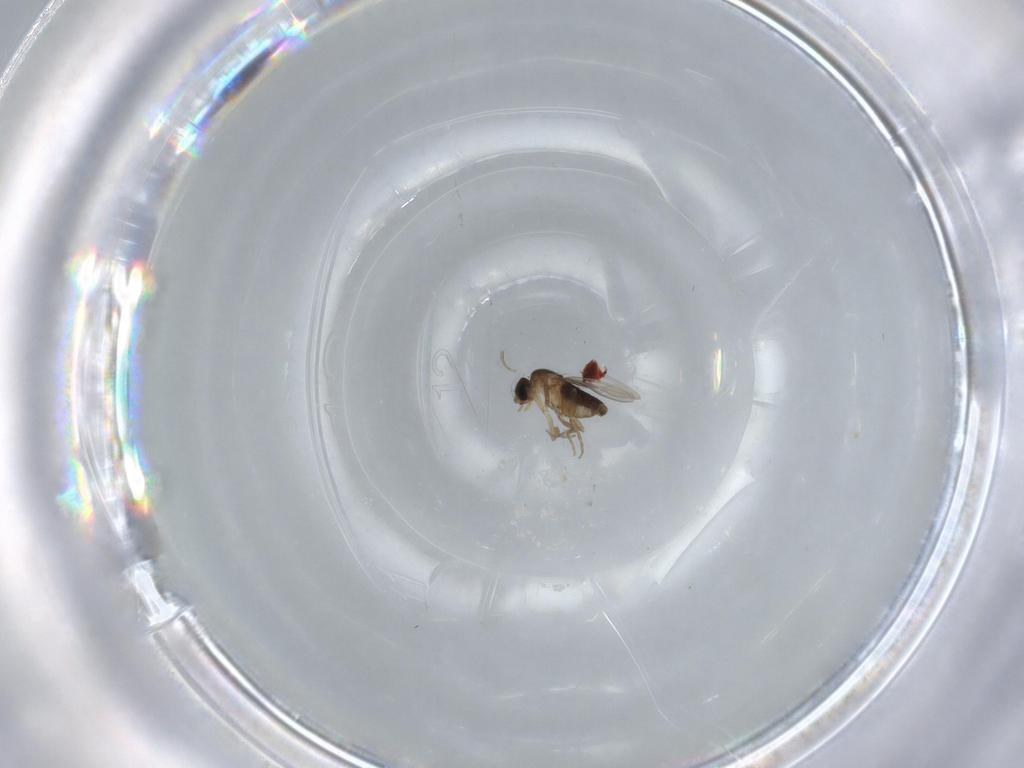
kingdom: Animalia
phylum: Arthropoda
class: Insecta
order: Diptera
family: Phoridae
